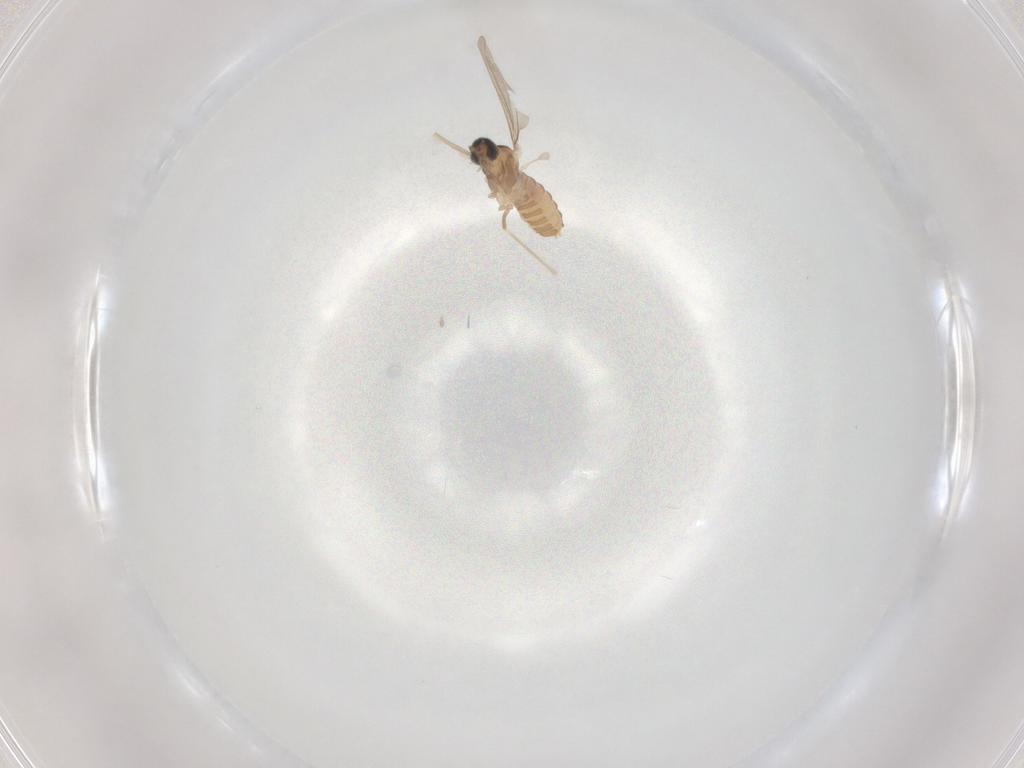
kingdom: Animalia
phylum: Arthropoda
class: Insecta
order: Diptera
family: Cecidomyiidae
